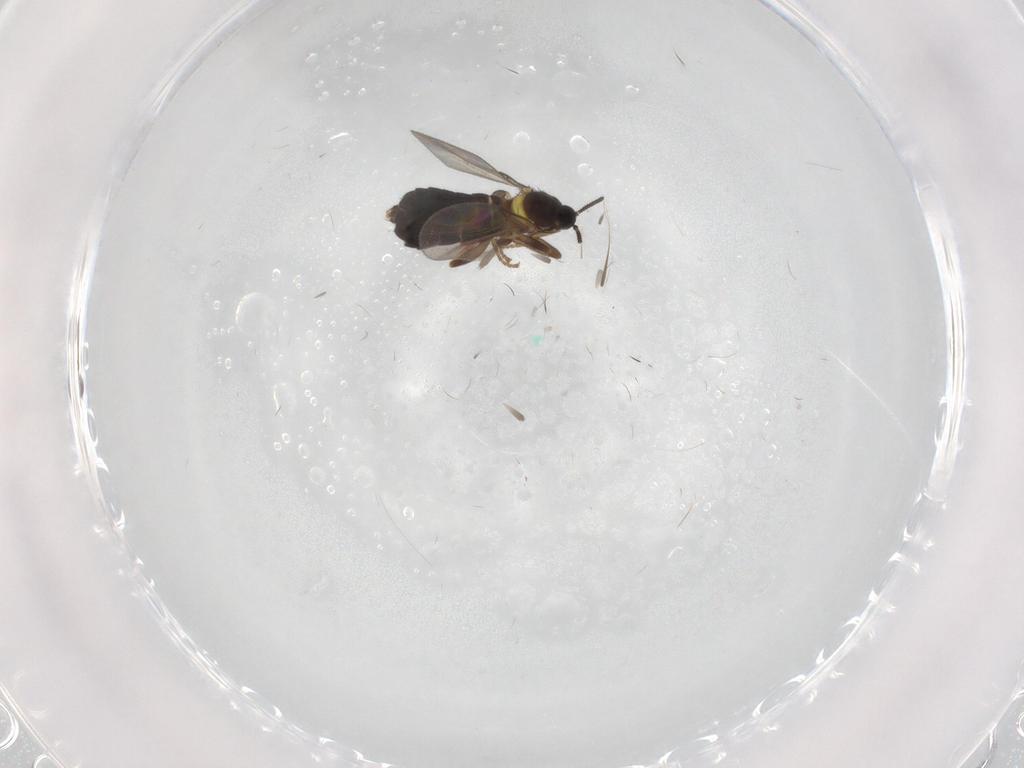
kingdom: Animalia
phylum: Arthropoda
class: Insecta
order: Diptera
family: Scatopsidae
